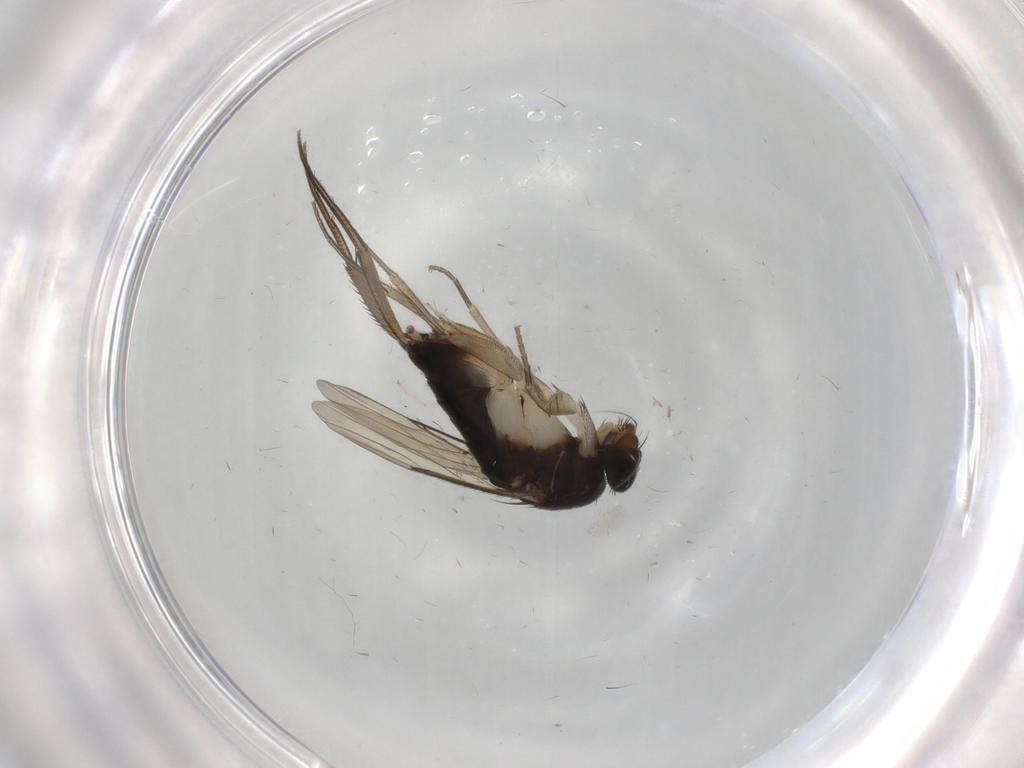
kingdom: Animalia
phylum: Arthropoda
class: Insecta
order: Diptera
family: Phoridae
